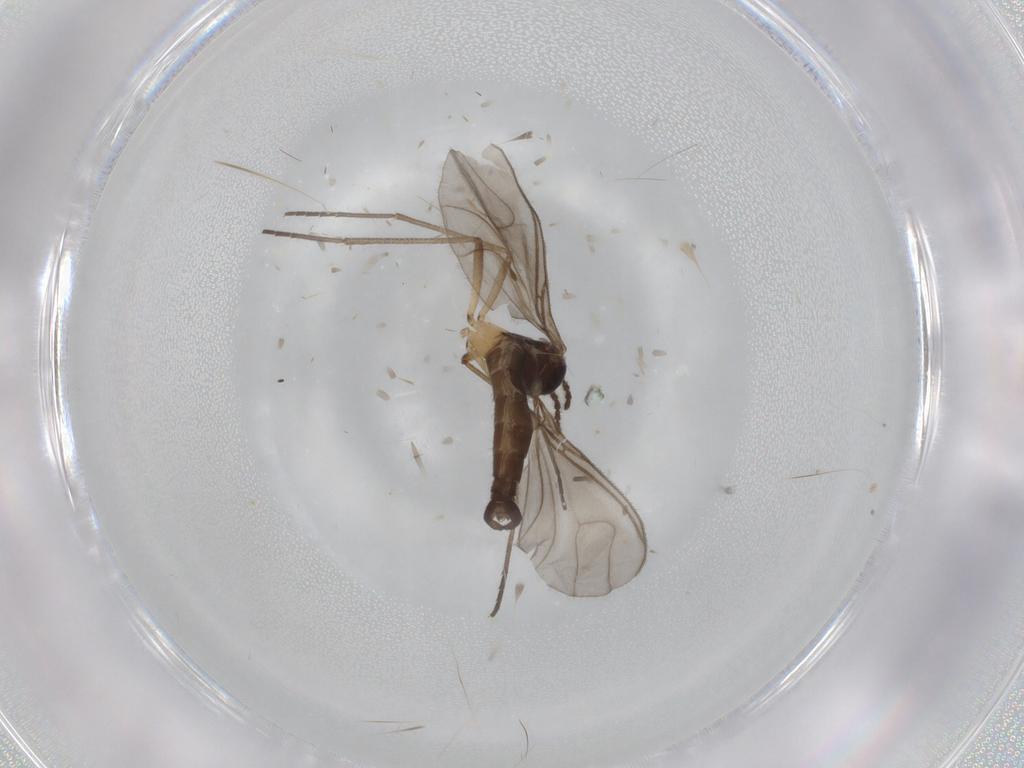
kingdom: Animalia
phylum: Arthropoda
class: Insecta
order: Diptera
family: Sciaridae
